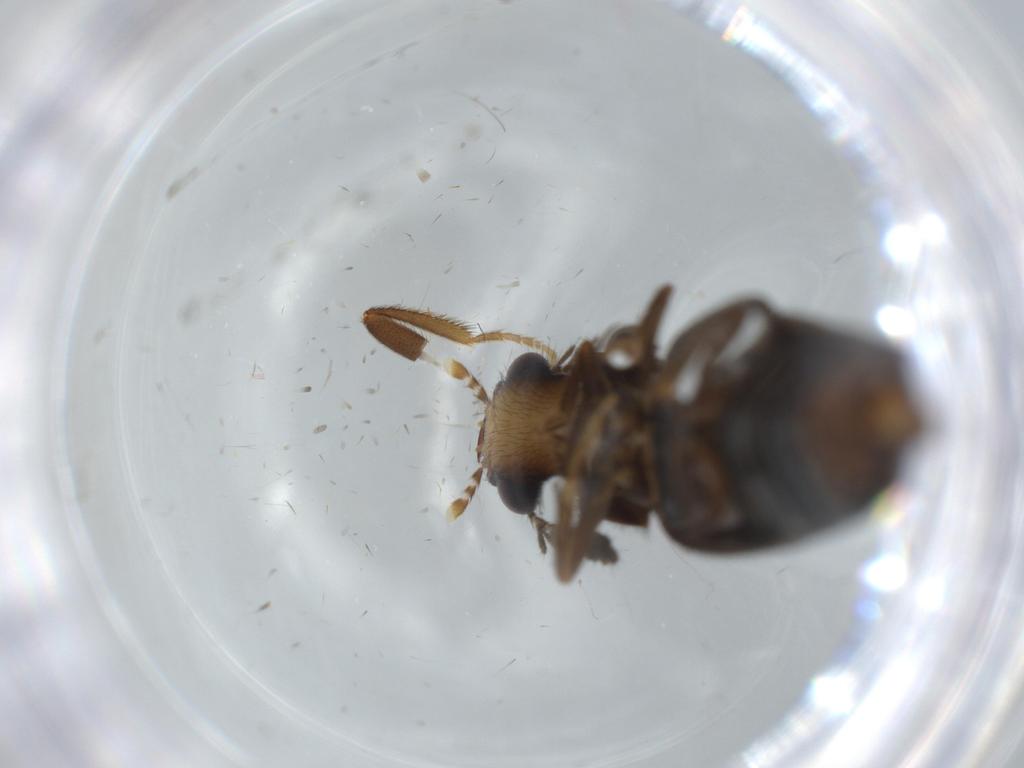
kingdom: Animalia
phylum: Arthropoda
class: Insecta
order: Coleoptera
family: Phengodidae
